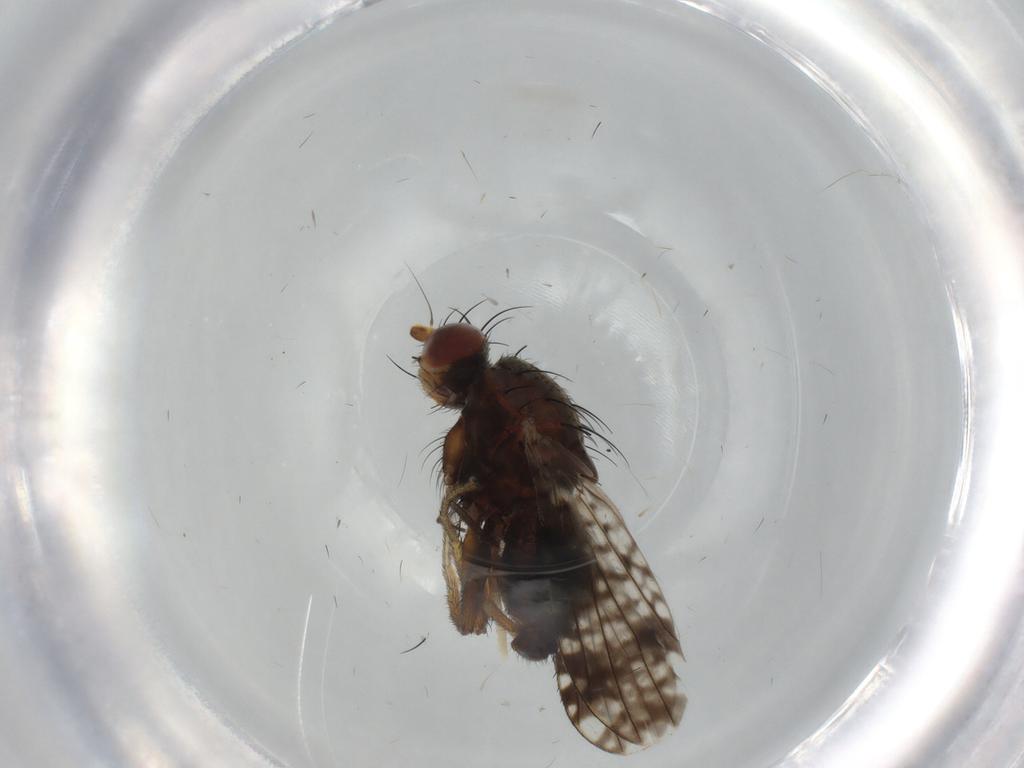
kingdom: Animalia
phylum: Arthropoda
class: Insecta
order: Diptera
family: Tephritidae
